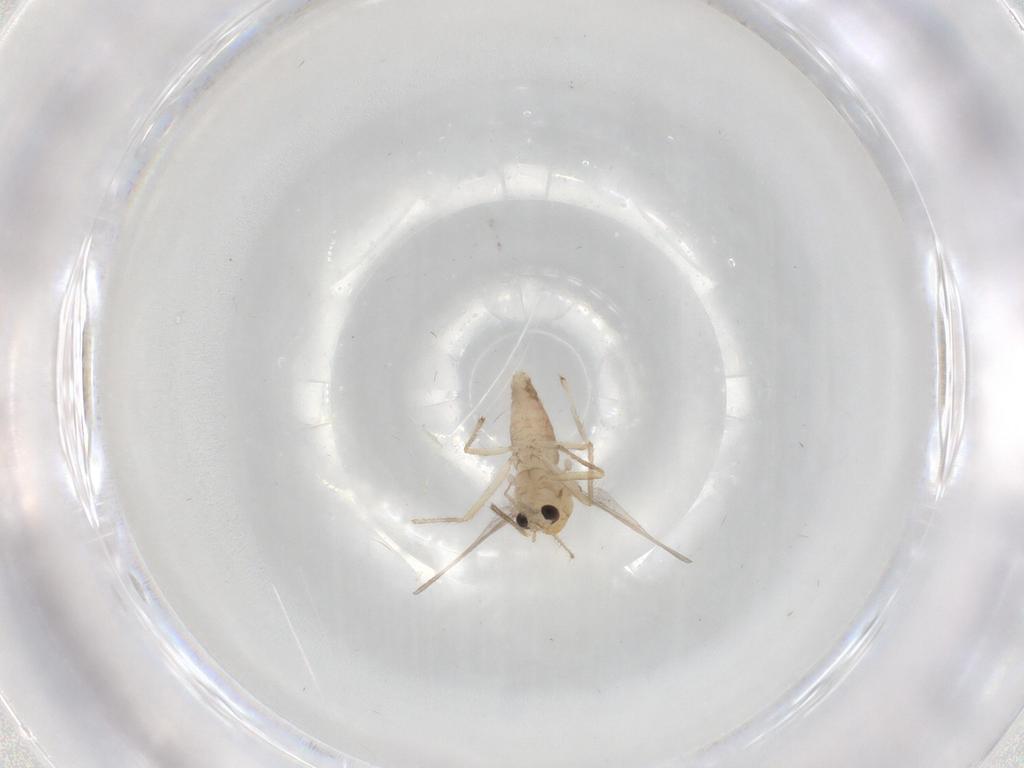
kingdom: Animalia
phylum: Arthropoda
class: Insecta
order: Diptera
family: Chironomidae
